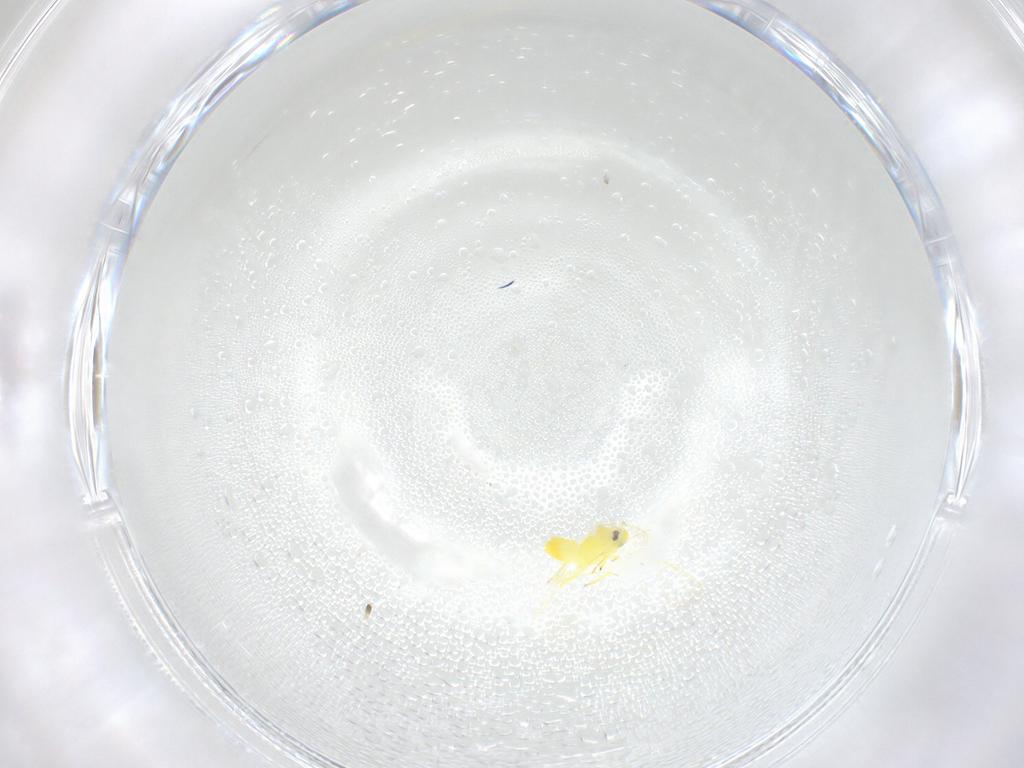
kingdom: Animalia
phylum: Arthropoda
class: Insecta
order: Hemiptera
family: Aleyrodidae
